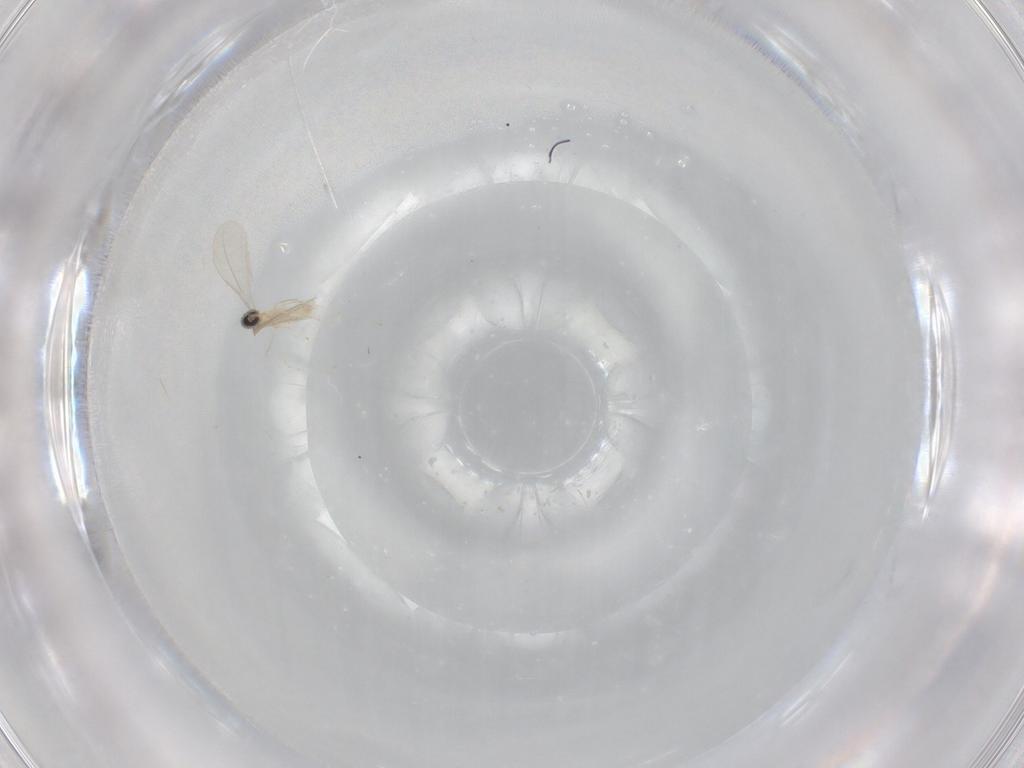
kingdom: Animalia
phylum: Arthropoda
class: Insecta
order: Diptera
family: Cecidomyiidae
